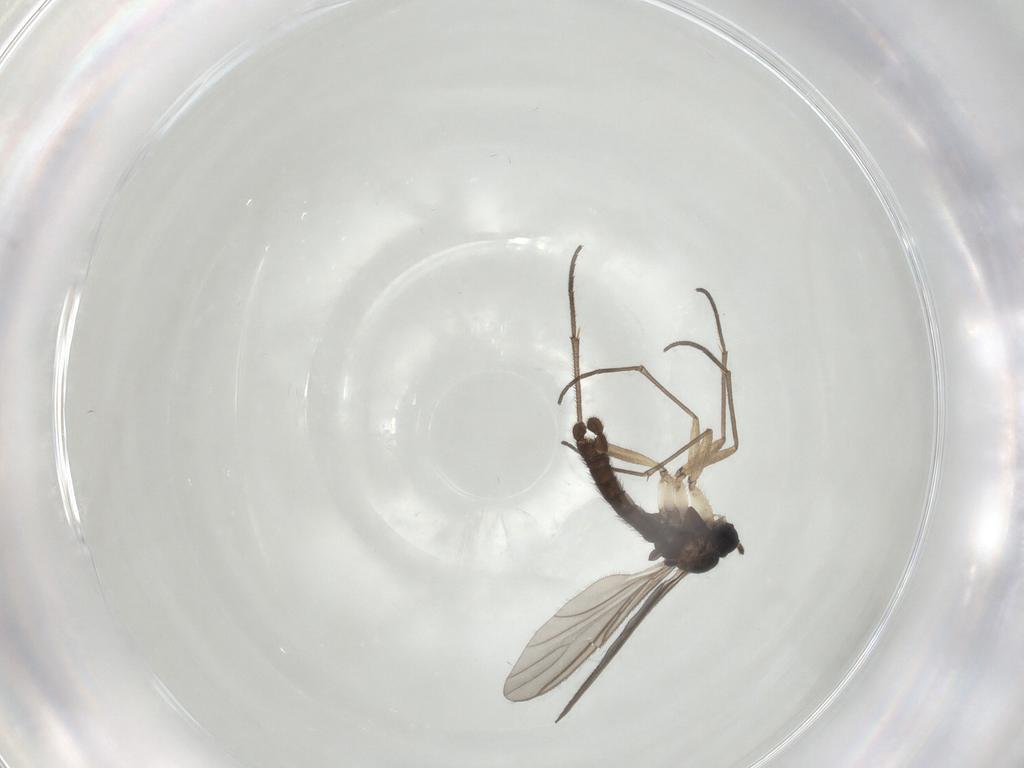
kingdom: Animalia
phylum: Arthropoda
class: Insecta
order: Diptera
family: Sciaridae
